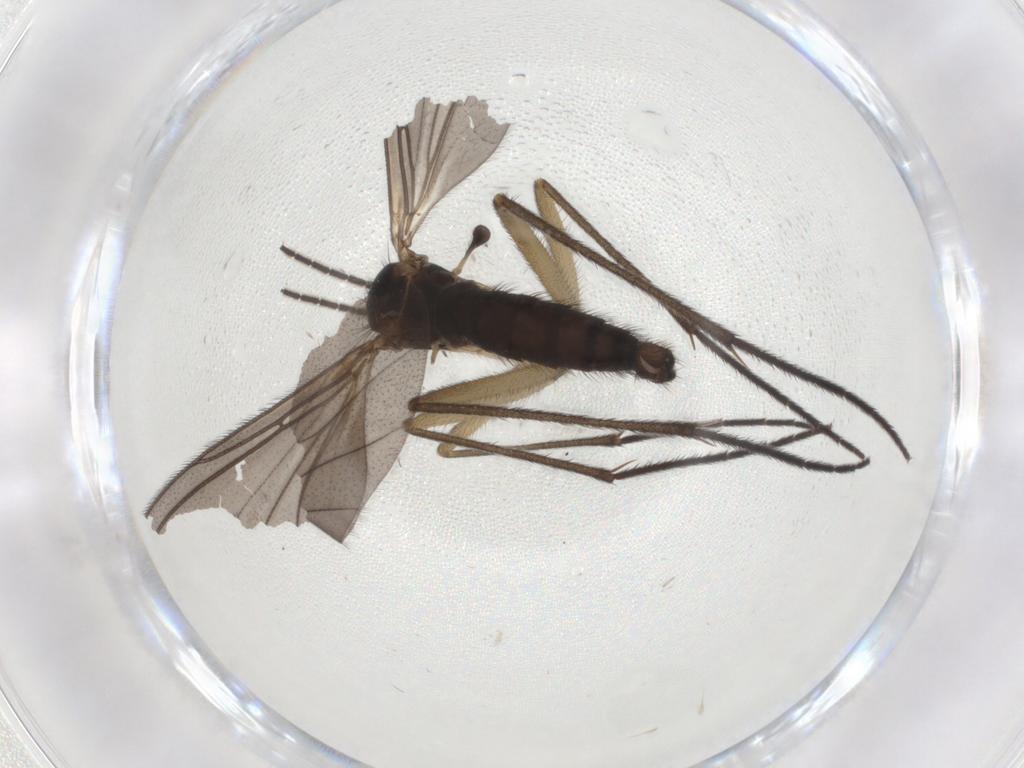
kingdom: Animalia
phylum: Arthropoda
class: Insecta
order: Diptera
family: Sciaridae
